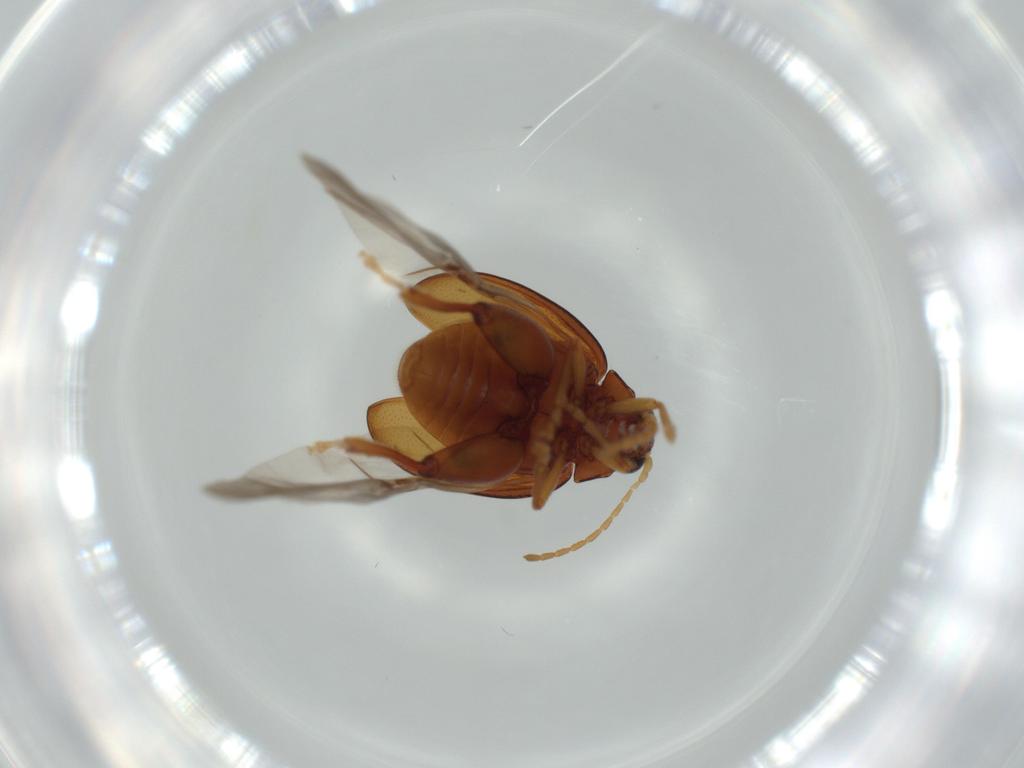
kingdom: Animalia
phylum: Arthropoda
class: Insecta
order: Coleoptera
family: Chrysomelidae
